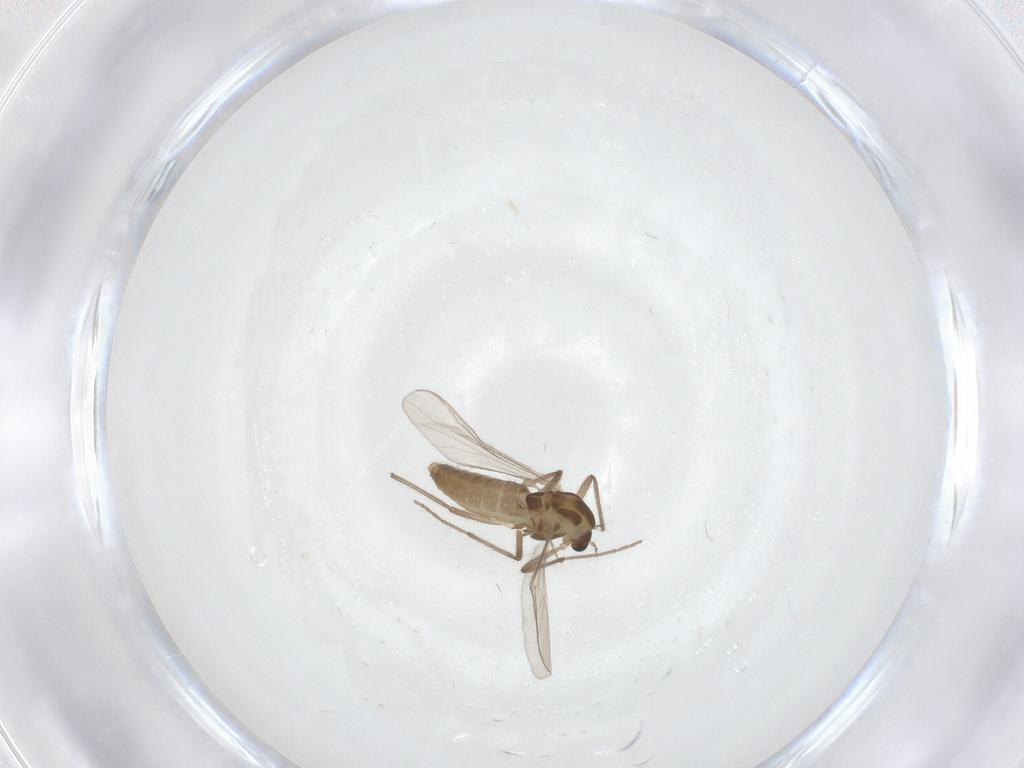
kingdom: Animalia
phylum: Arthropoda
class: Insecta
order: Diptera
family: Chironomidae
